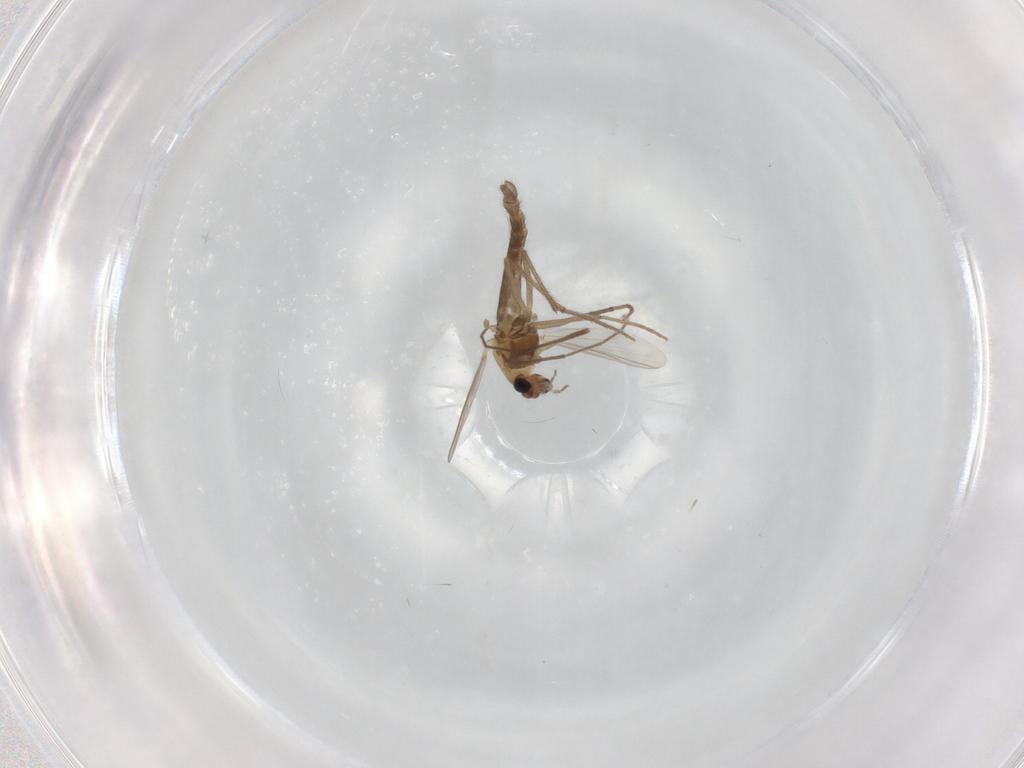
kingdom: Animalia
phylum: Arthropoda
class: Insecta
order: Diptera
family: Chironomidae
